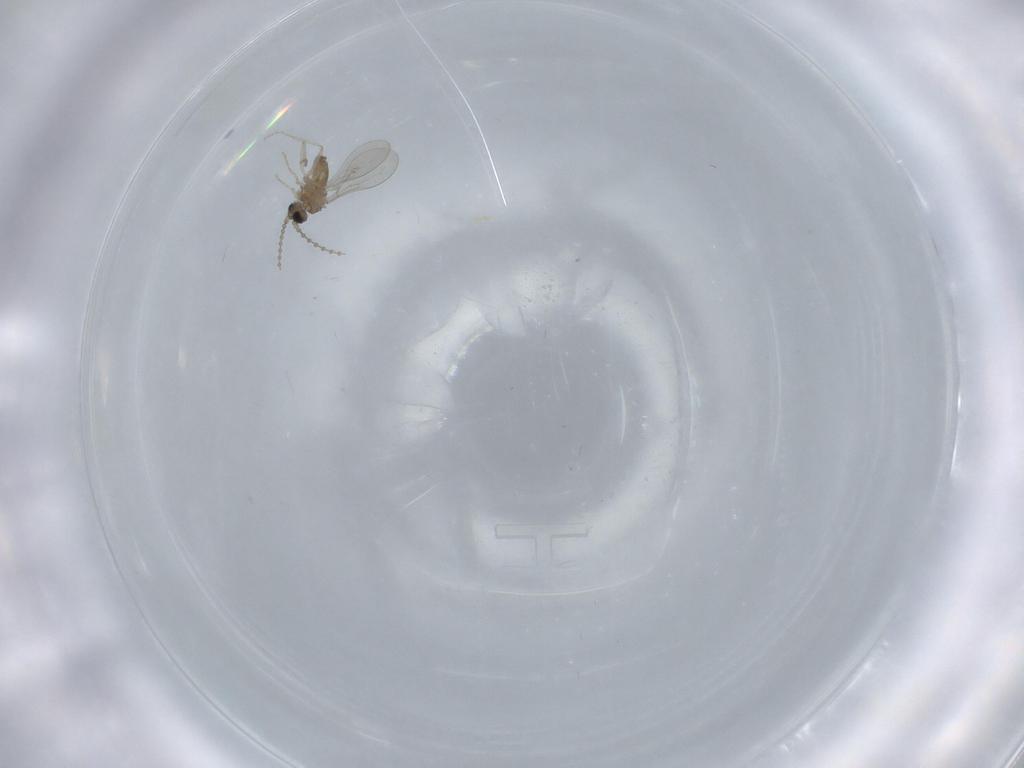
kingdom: Animalia
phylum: Arthropoda
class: Insecta
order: Diptera
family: Cecidomyiidae
